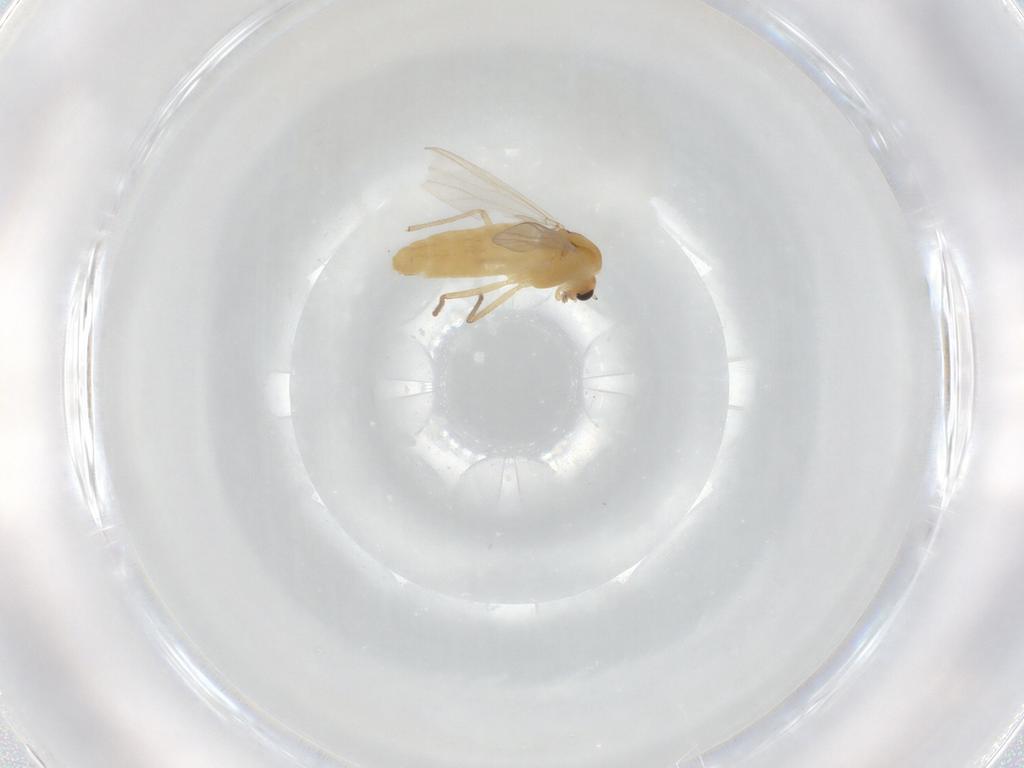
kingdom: Animalia
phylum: Arthropoda
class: Insecta
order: Diptera
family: Chironomidae
